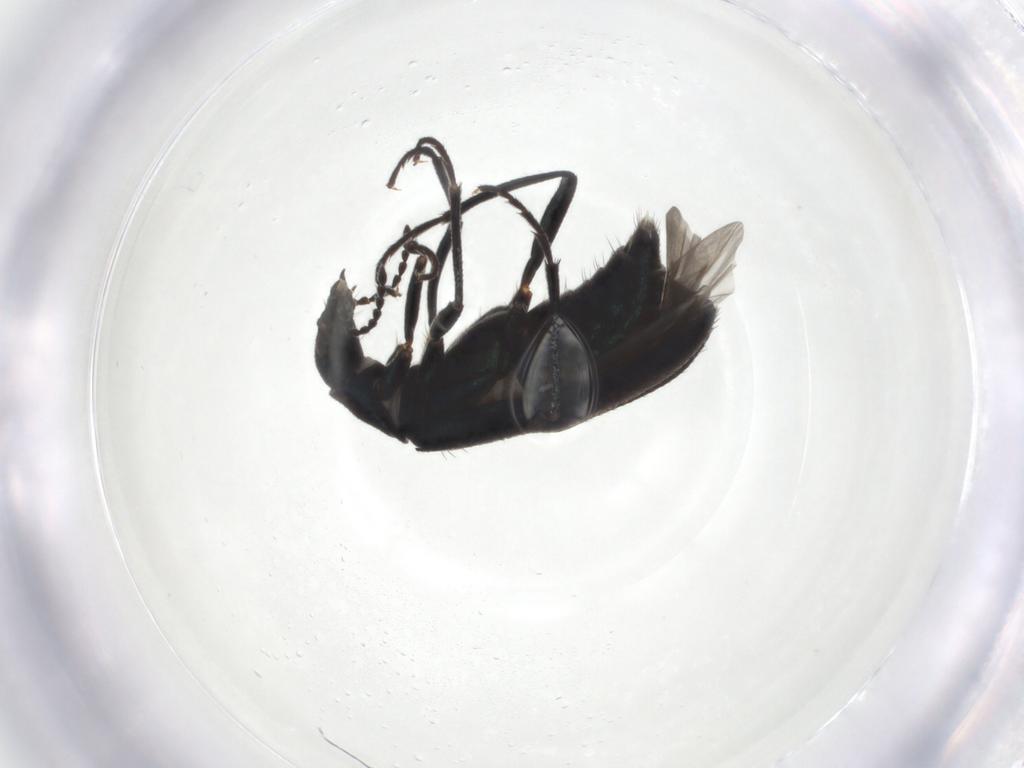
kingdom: Animalia
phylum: Arthropoda
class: Insecta
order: Coleoptera
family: Melyridae
